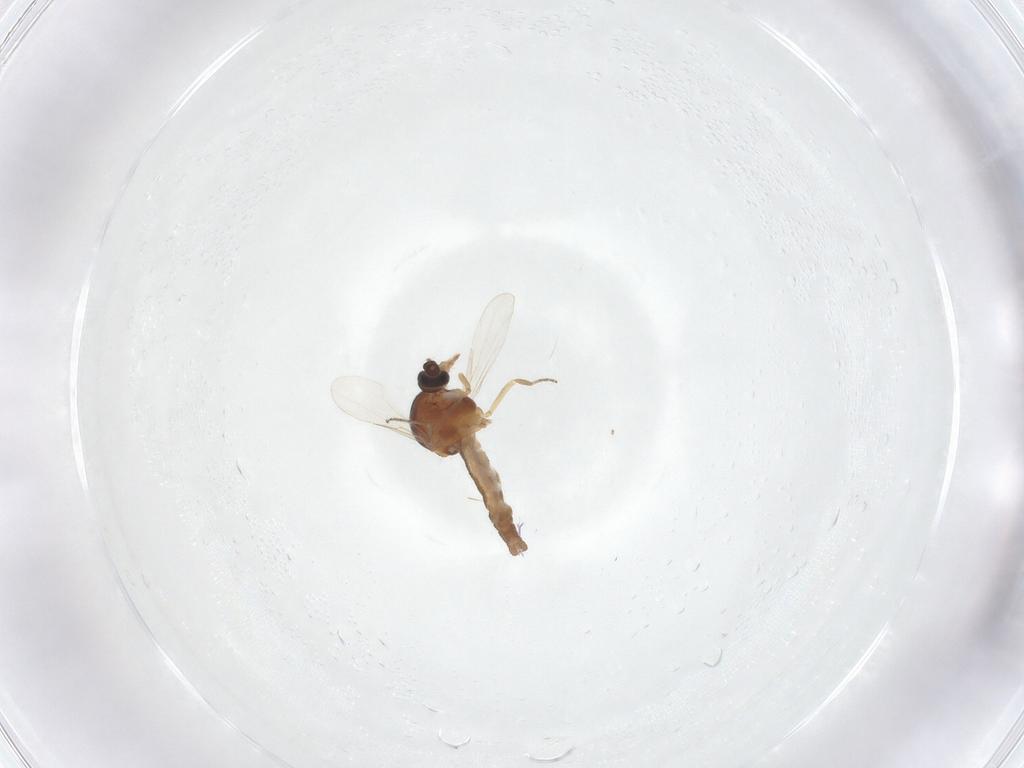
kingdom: Animalia
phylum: Arthropoda
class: Insecta
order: Diptera
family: Ceratopogonidae
